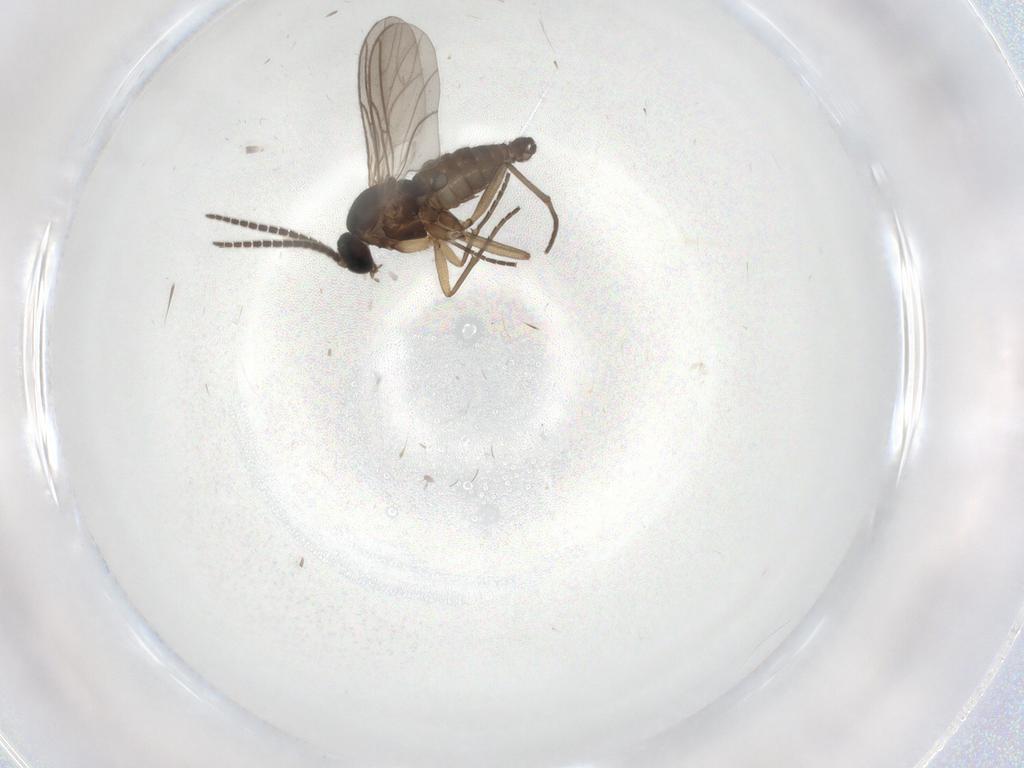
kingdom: Animalia
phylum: Arthropoda
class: Insecta
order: Diptera
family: Sciaridae
